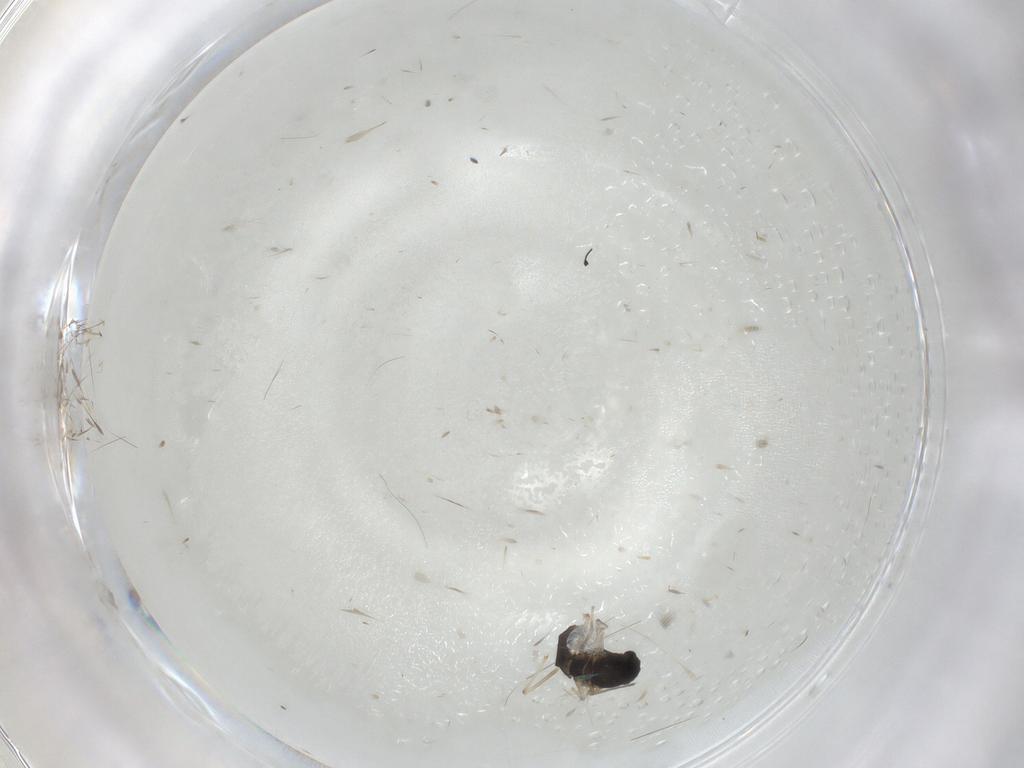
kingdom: Animalia
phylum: Arthropoda
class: Insecta
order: Diptera
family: Chironomidae
